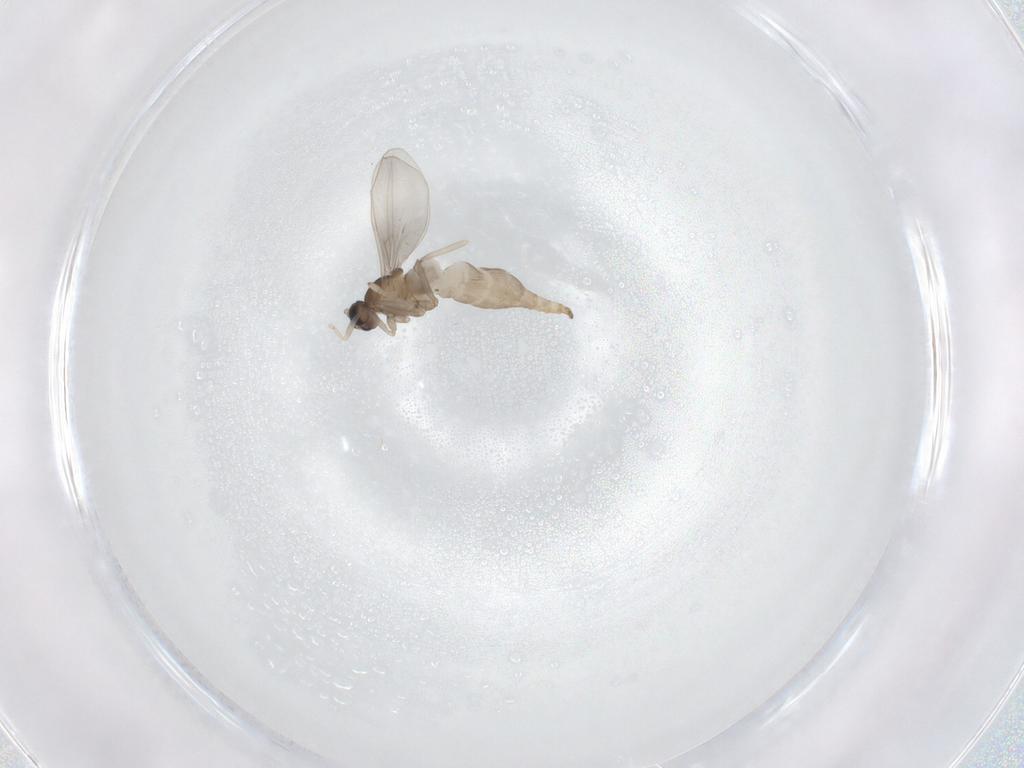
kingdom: Animalia
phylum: Arthropoda
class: Insecta
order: Diptera
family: Cecidomyiidae
